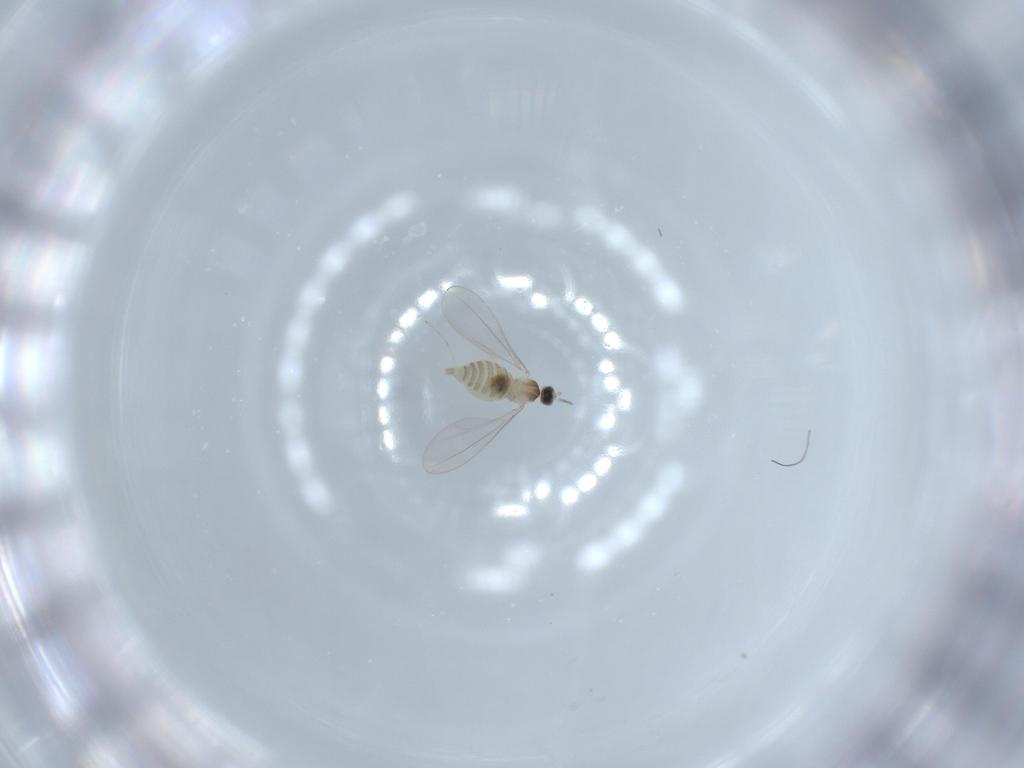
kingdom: Animalia
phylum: Arthropoda
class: Insecta
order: Diptera
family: Cecidomyiidae
